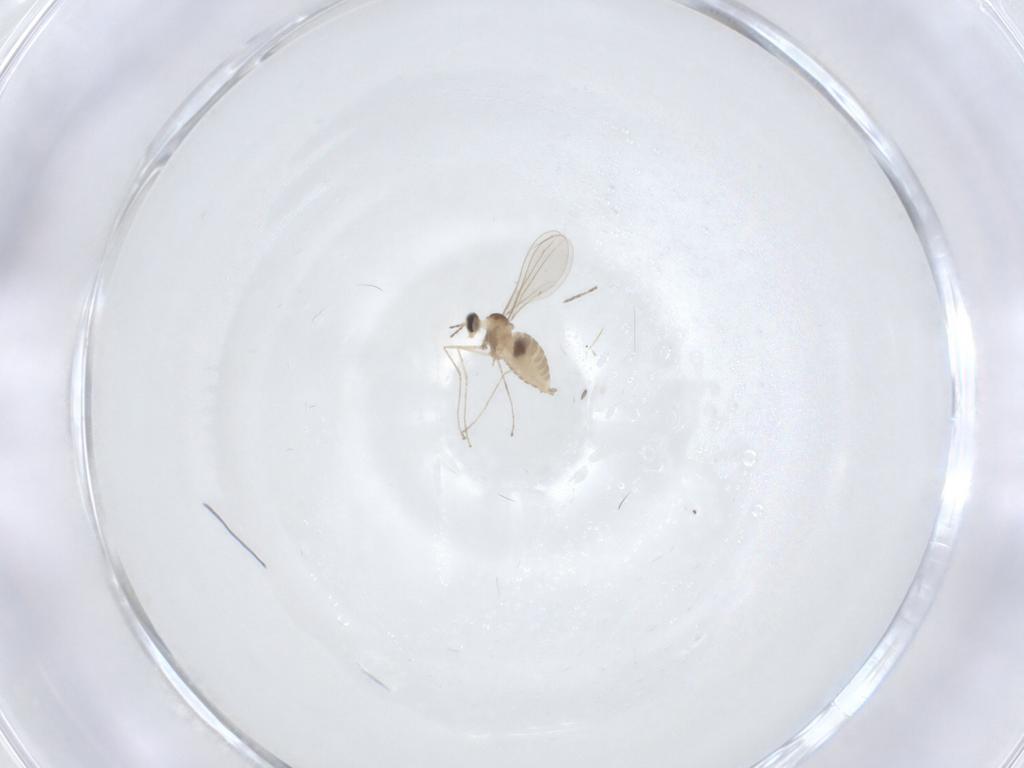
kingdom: Animalia
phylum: Arthropoda
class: Insecta
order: Diptera
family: Cecidomyiidae
